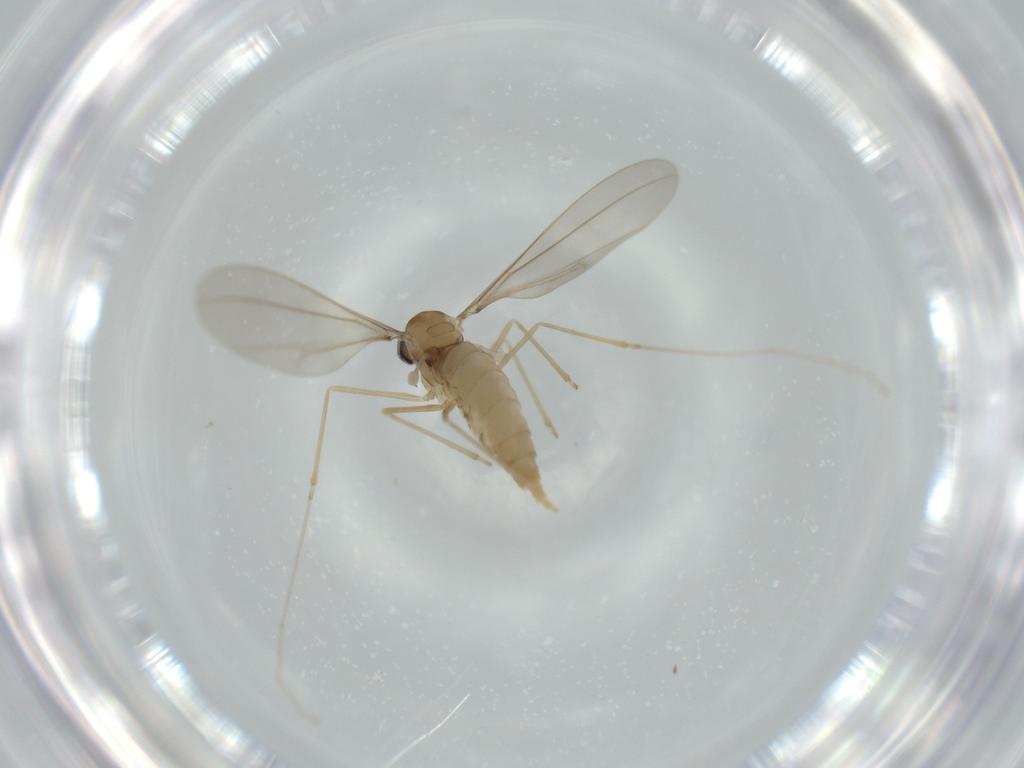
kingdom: Animalia
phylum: Arthropoda
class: Insecta
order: Diptera
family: Cecidomyiidae
